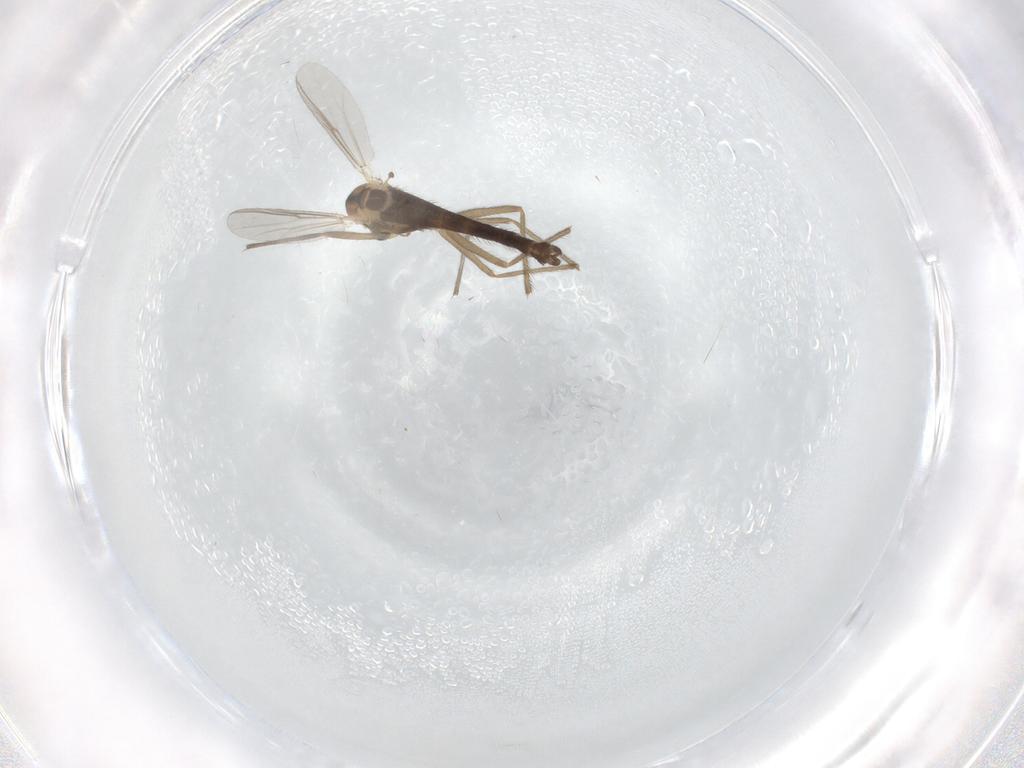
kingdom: Animalia
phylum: Arthropoda
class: Insecta
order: Diptera
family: Chironomidae
